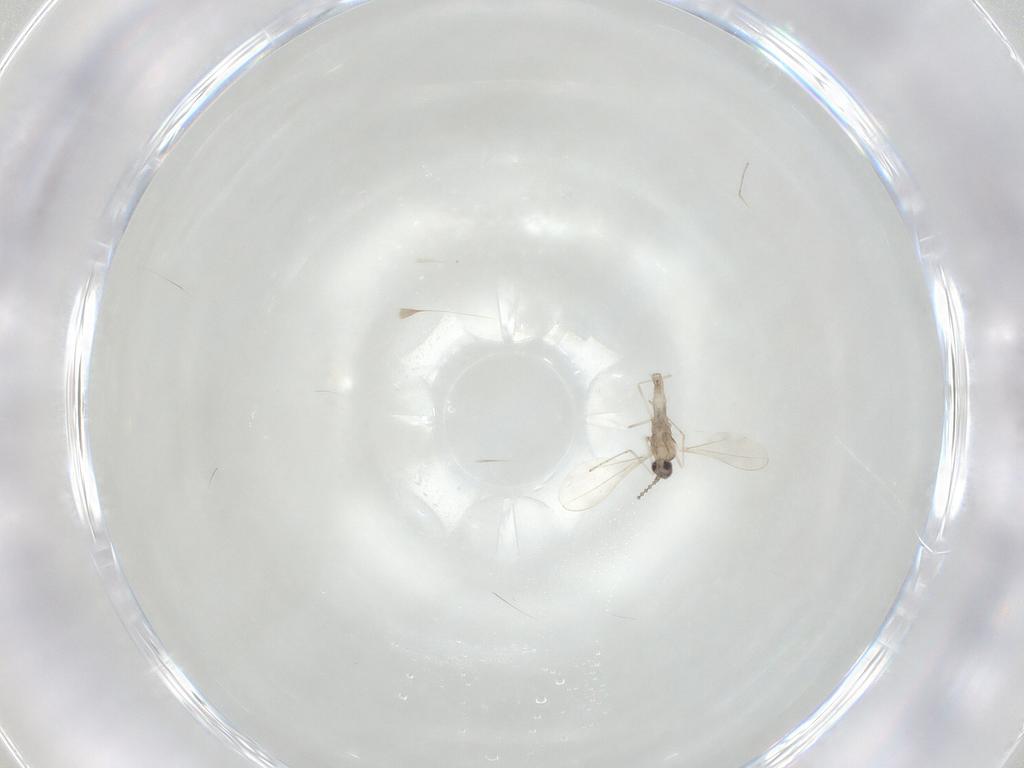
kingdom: Animalia
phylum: Arthropoda
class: Insecta
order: Diptera
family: Cecidomyiidae
